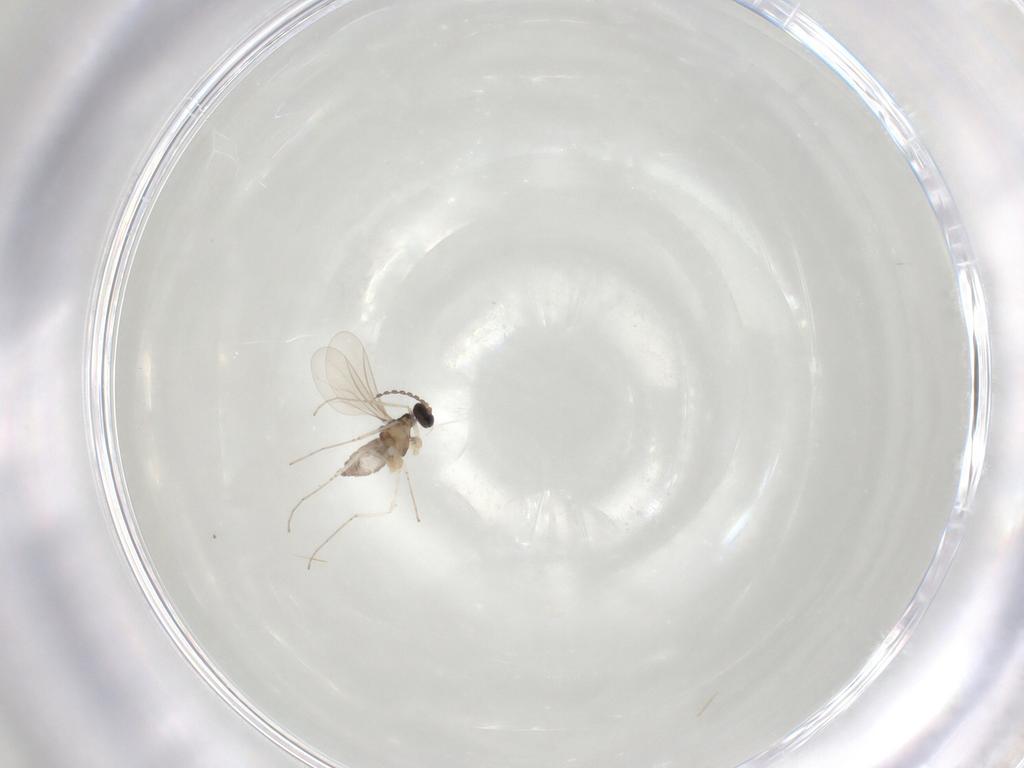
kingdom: Animalia
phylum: Arthropoda
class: Insecta
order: Diptera
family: Cecidomyiidae
